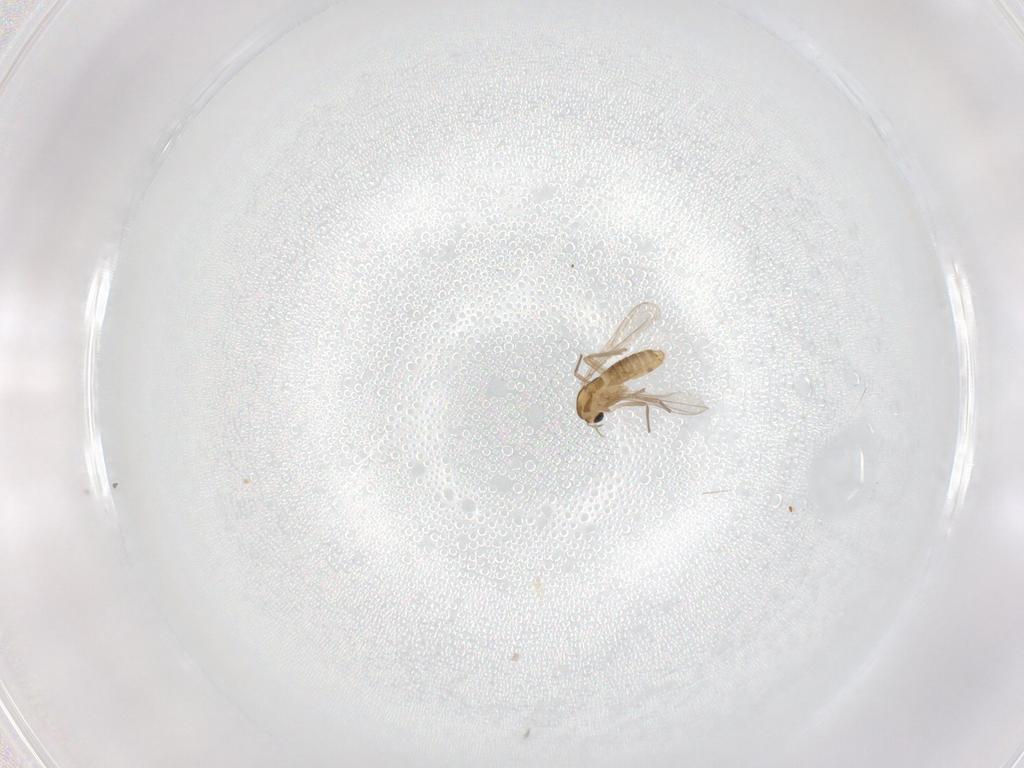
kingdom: Animalia
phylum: Arthropoda
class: Insecta
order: Diptera
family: Chironomidae
